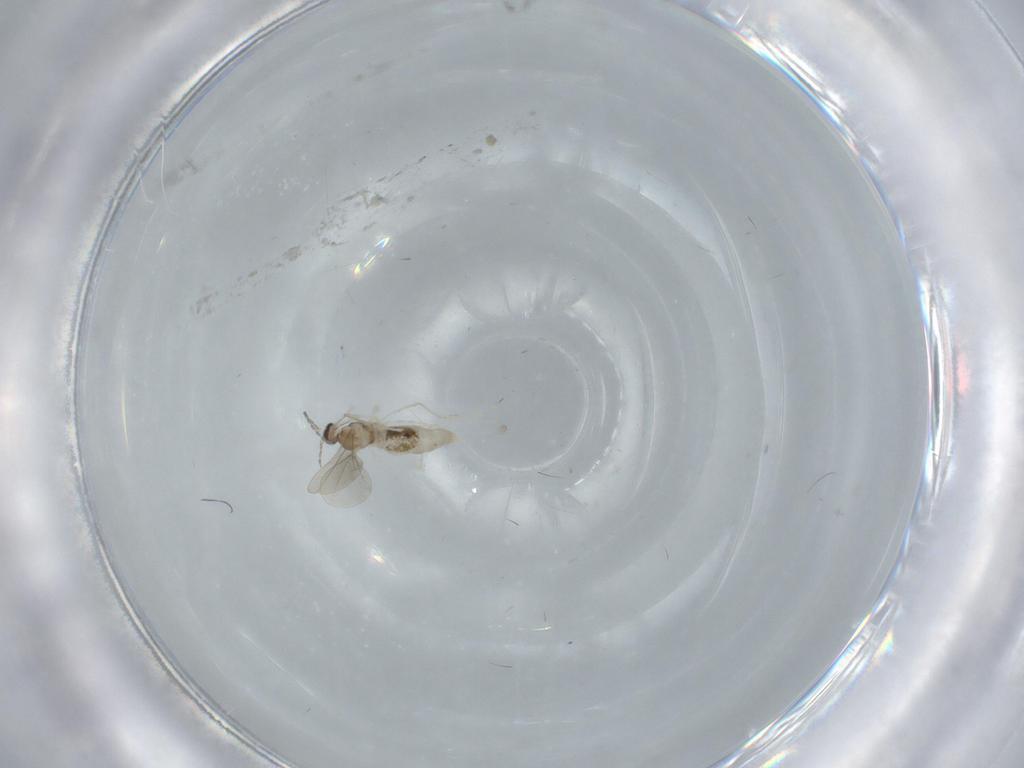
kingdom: Animalia
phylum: Arthropoda
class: Insecta
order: Diptera
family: Cecidomyiidae
